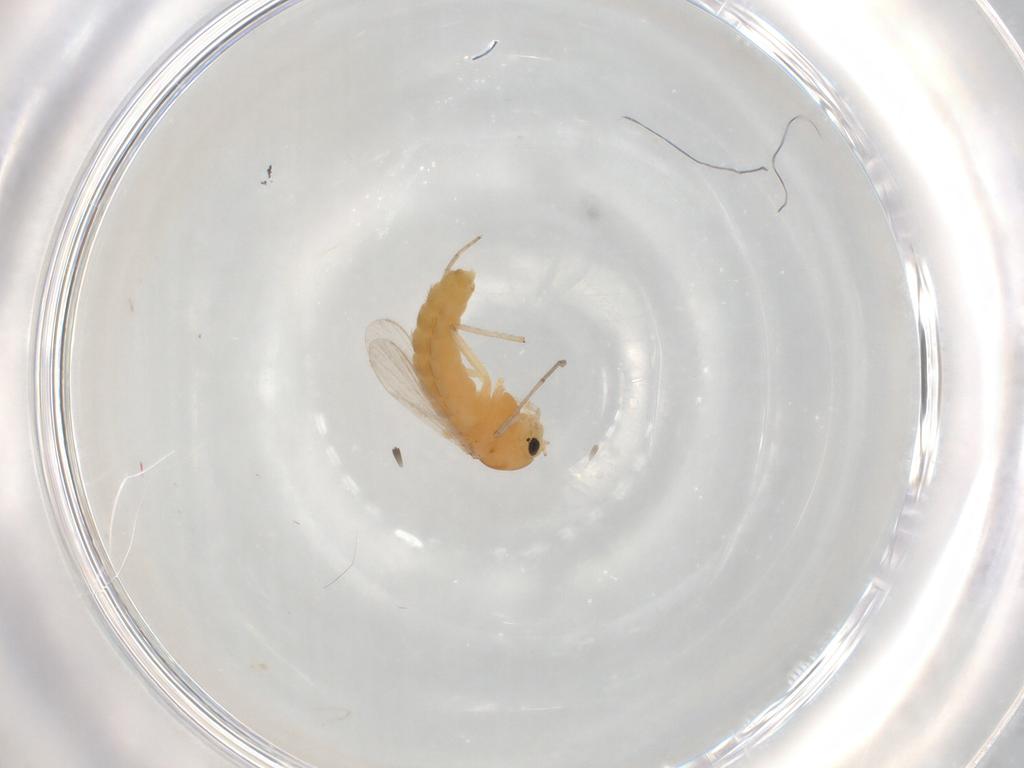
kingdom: Animalia
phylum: Arthropoda
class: Insecta
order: Diptera
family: Chironomidae
